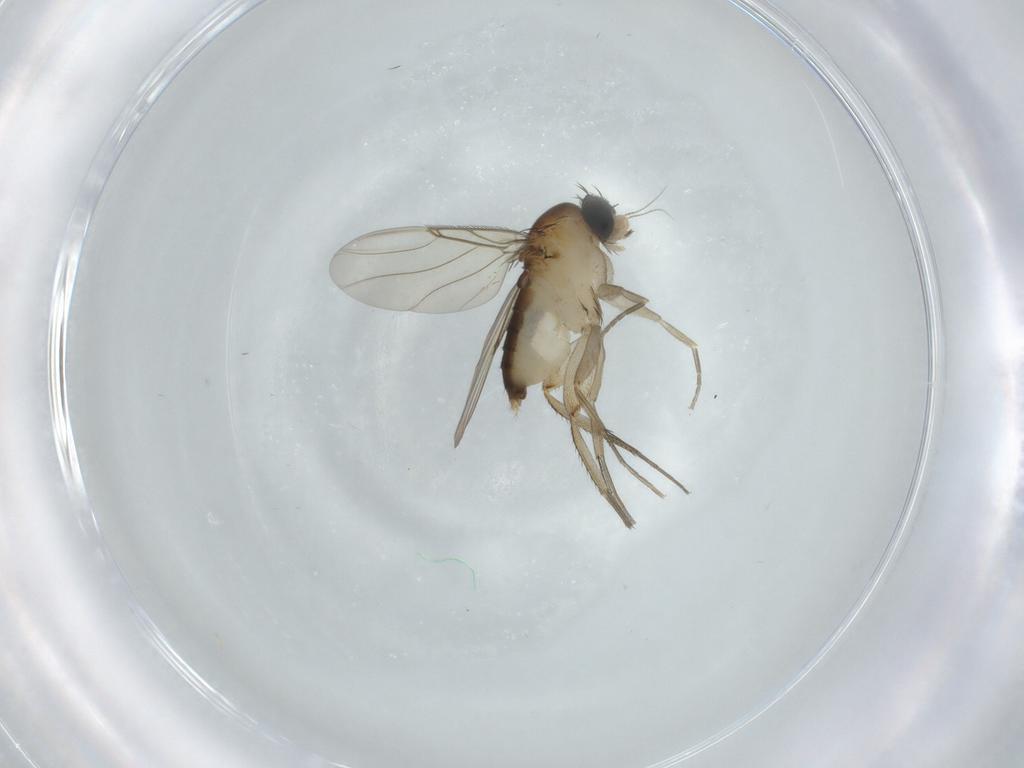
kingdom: Animalia
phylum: Arthropoda
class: Insecta
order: Diptera
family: Phoridae
